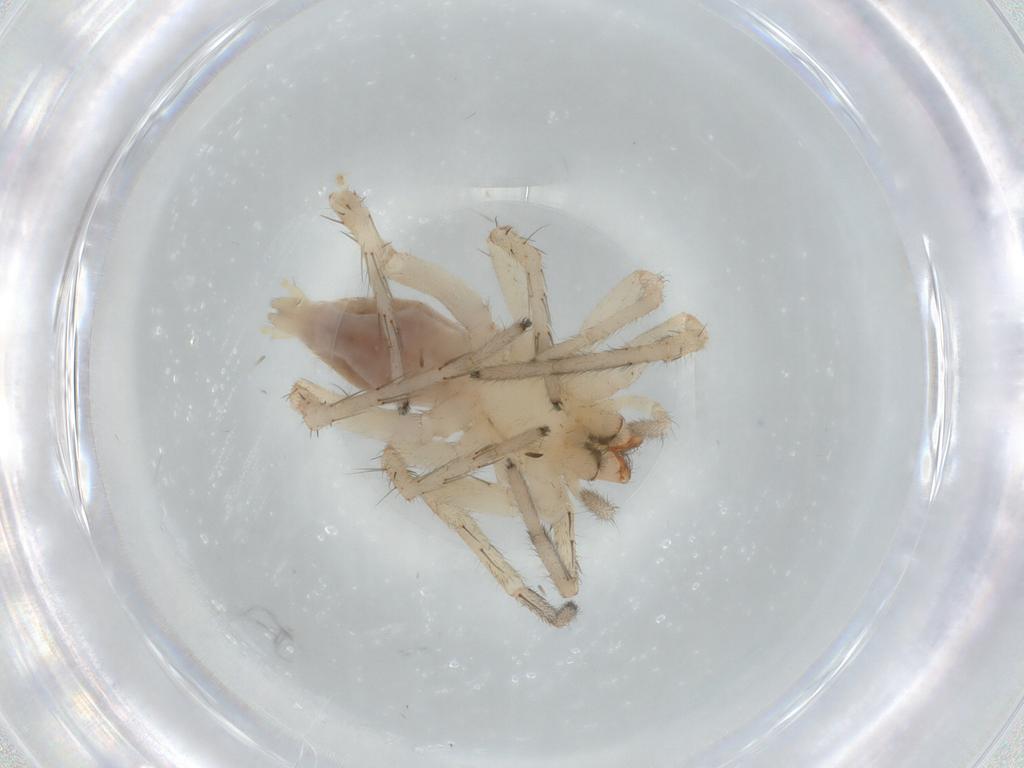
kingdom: Animalia
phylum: Arthropoda
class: Arachnida
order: Araneae
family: Anyphaenidae
